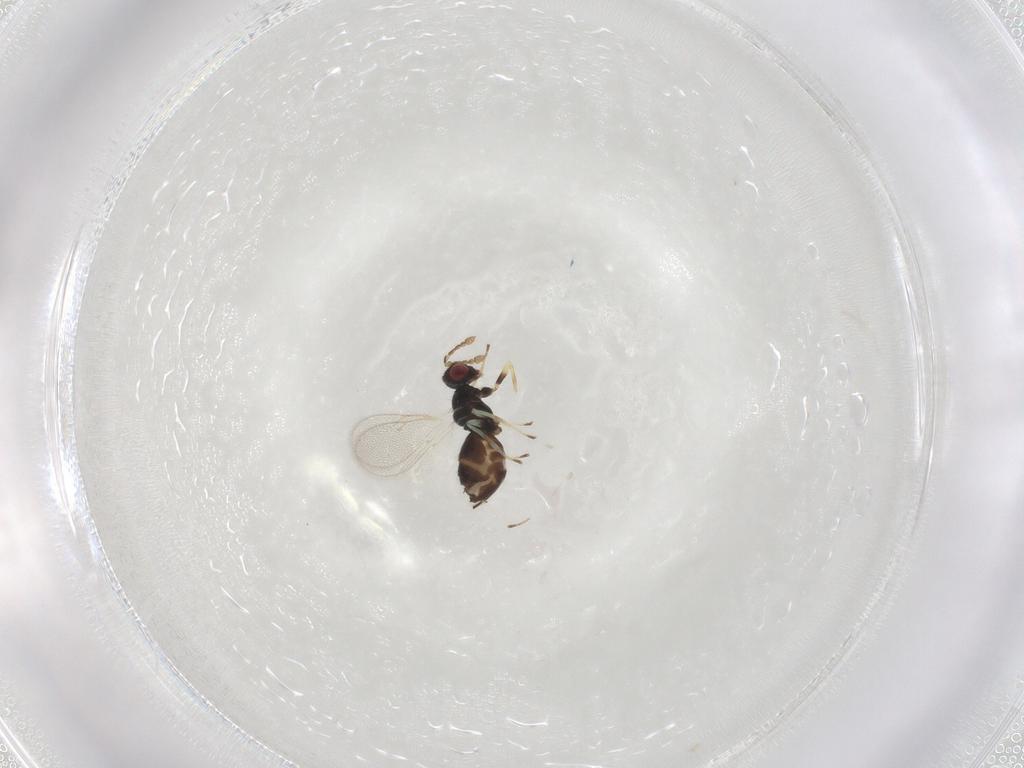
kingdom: Animalia
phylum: Arthropoda
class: Insecta
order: Hymenoptera
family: Eulophidae
